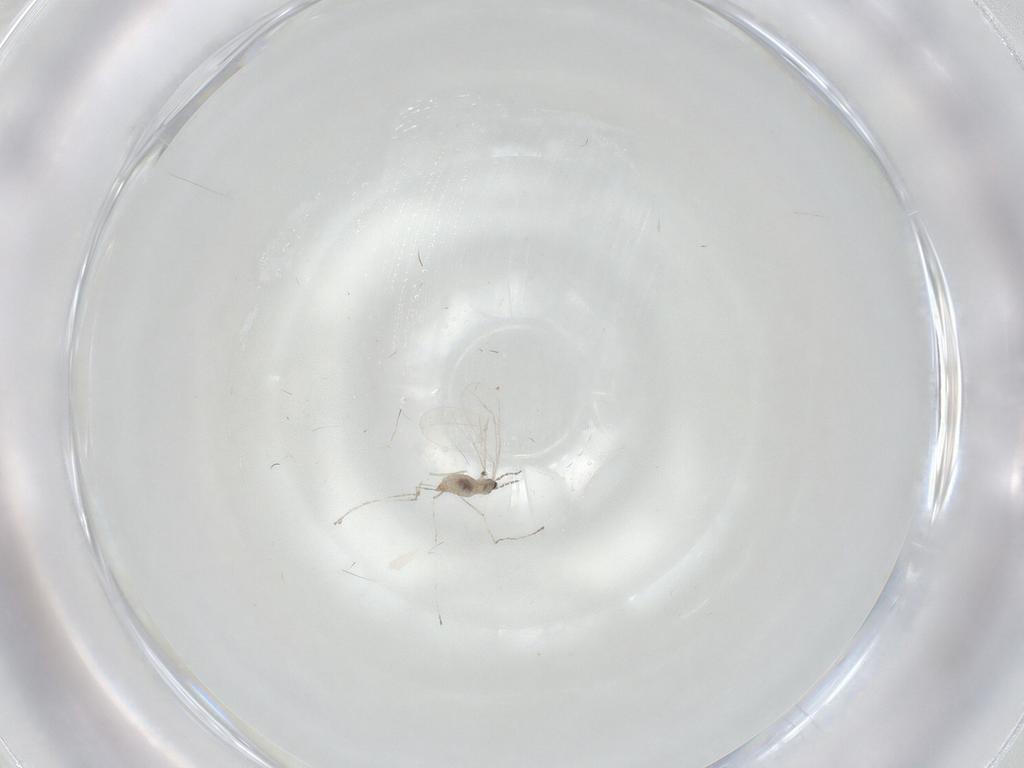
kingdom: Animalia
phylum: Arthropoda
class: Insecta
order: Diptera
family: Cecidomyiidae
